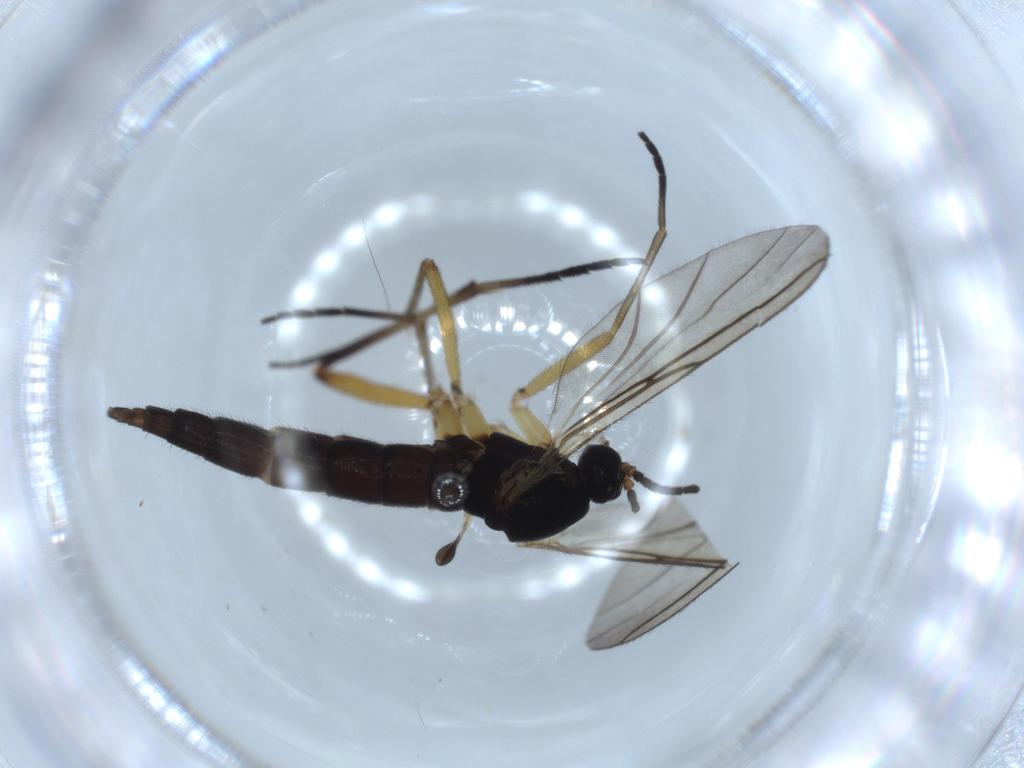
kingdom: Animalia
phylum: Arthropoda
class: Insecta
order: Diptera
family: Sciaridae
